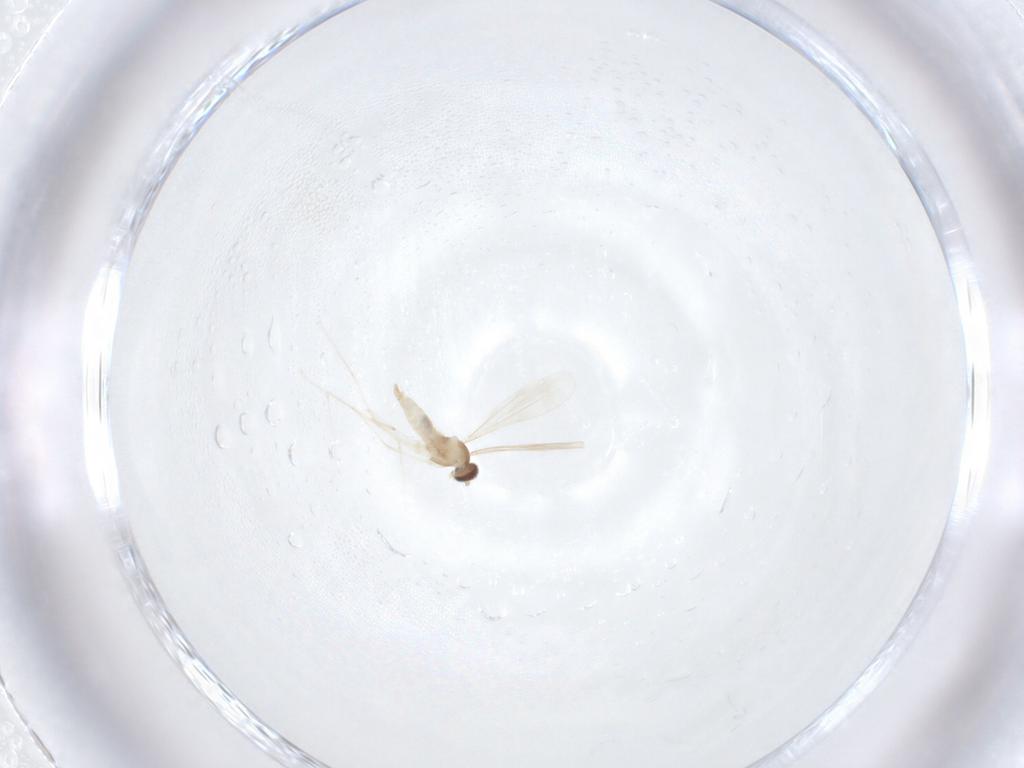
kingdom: Animalia
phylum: Arthropoda
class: Insecta
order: Diptera
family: Cecidomyiidae
